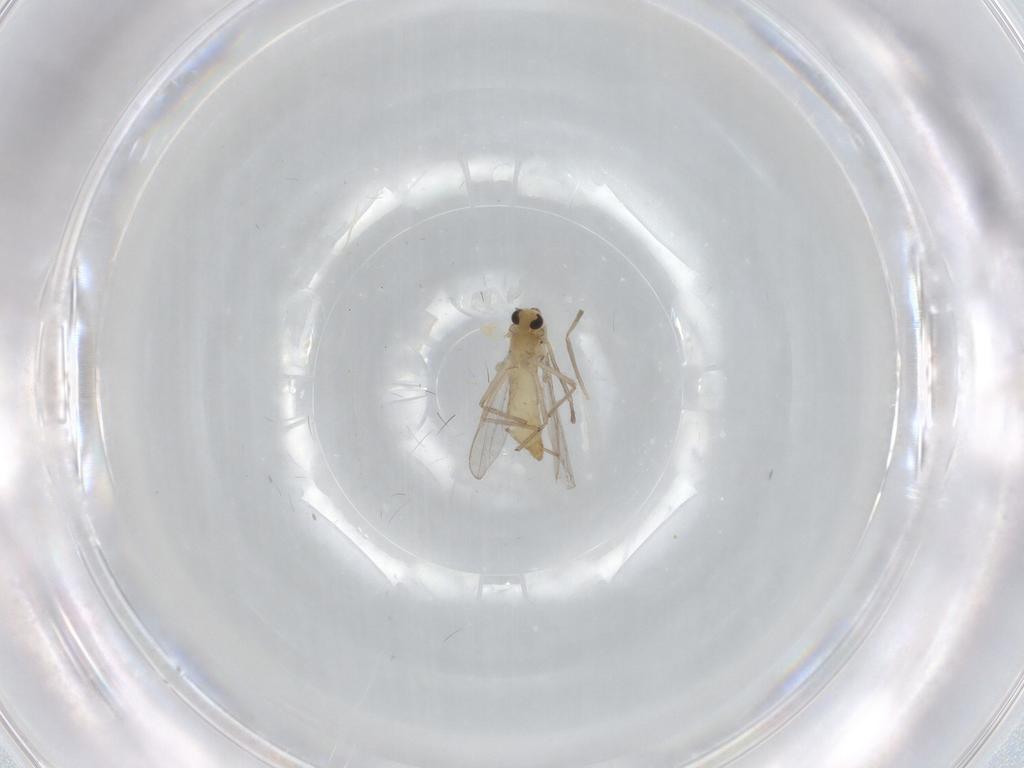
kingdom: Animalia
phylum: Arthropoda
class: Insecta
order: Diptera
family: Chironomidae
